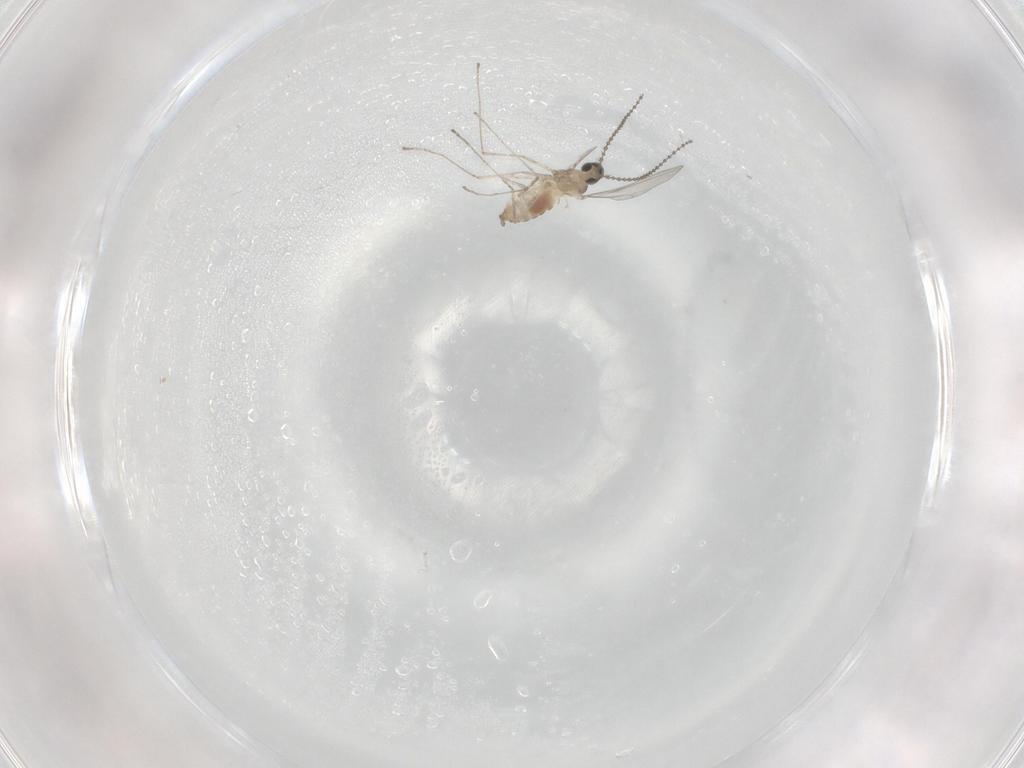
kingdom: Animalia
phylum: Arthropoda
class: Insecta
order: Diptera
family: Cecidomyiidae
